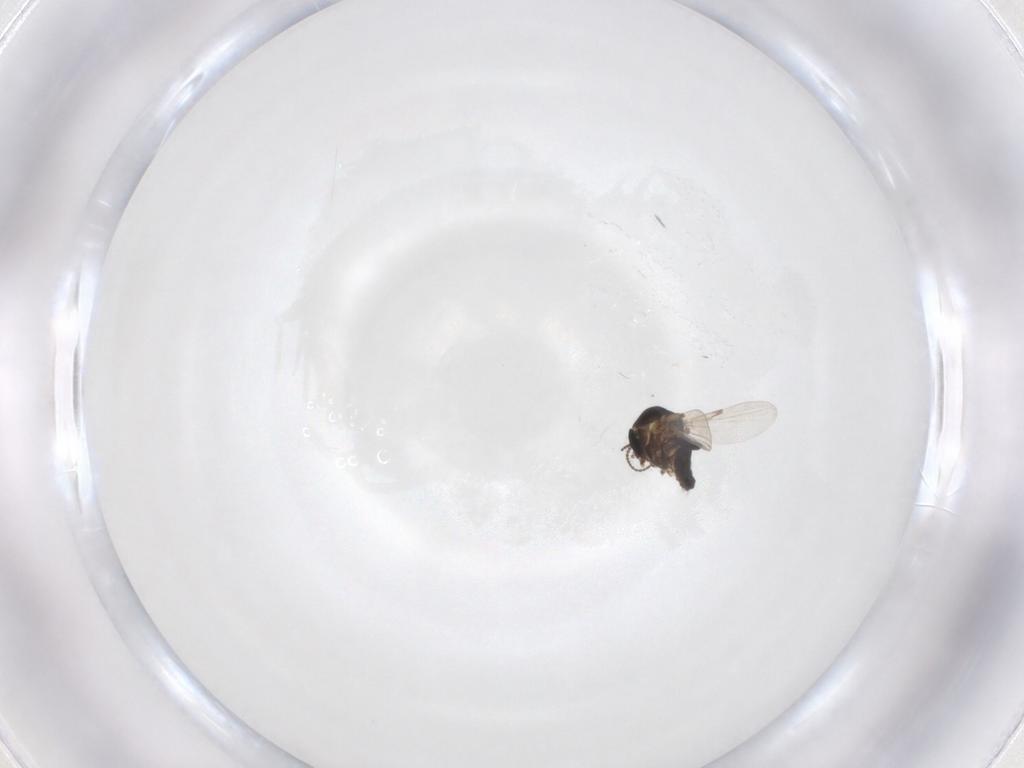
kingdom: Animalia
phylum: Arthropoda
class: Insecta
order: Diptera
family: Ceratopogonidae
